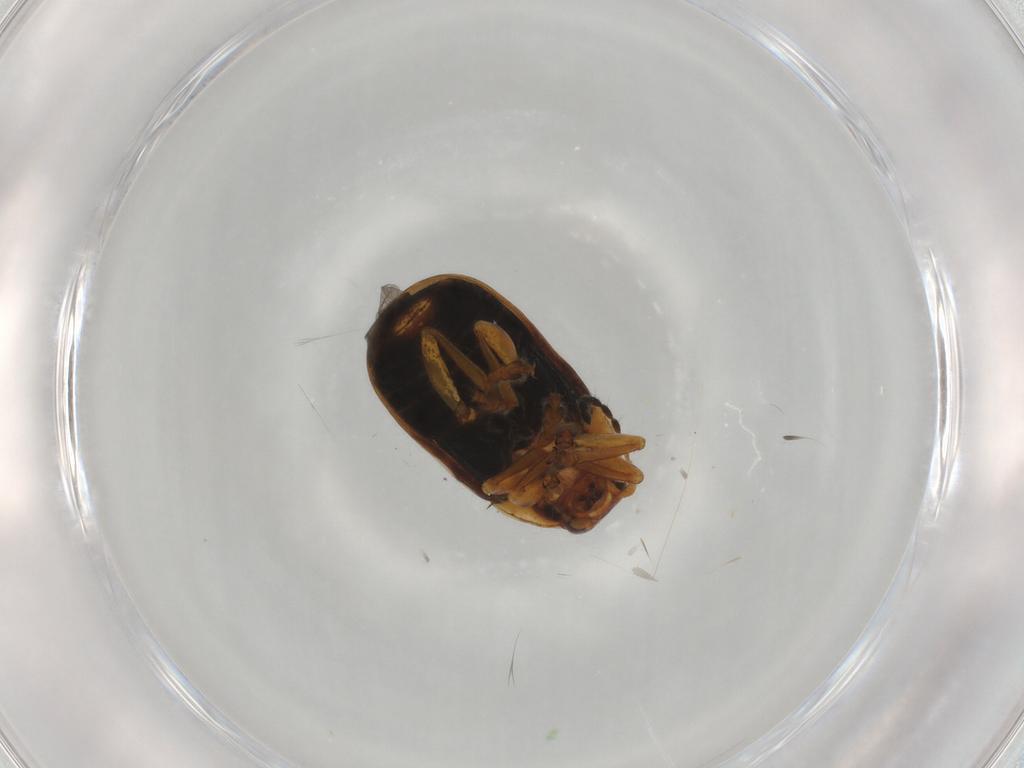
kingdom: Animalia
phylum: Arthropoda
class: Insecta
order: Coleoptera
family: Chrysomelidae
